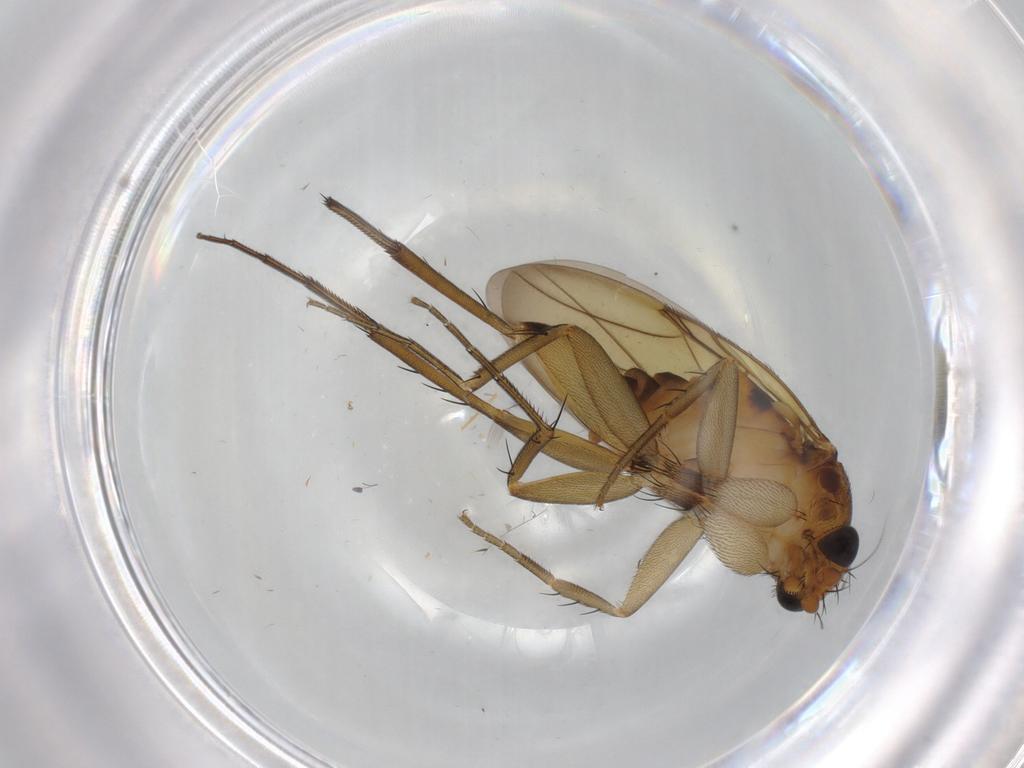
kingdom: Animalia
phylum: Arthropoda
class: Insecta
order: Diptera
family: Phoridae
